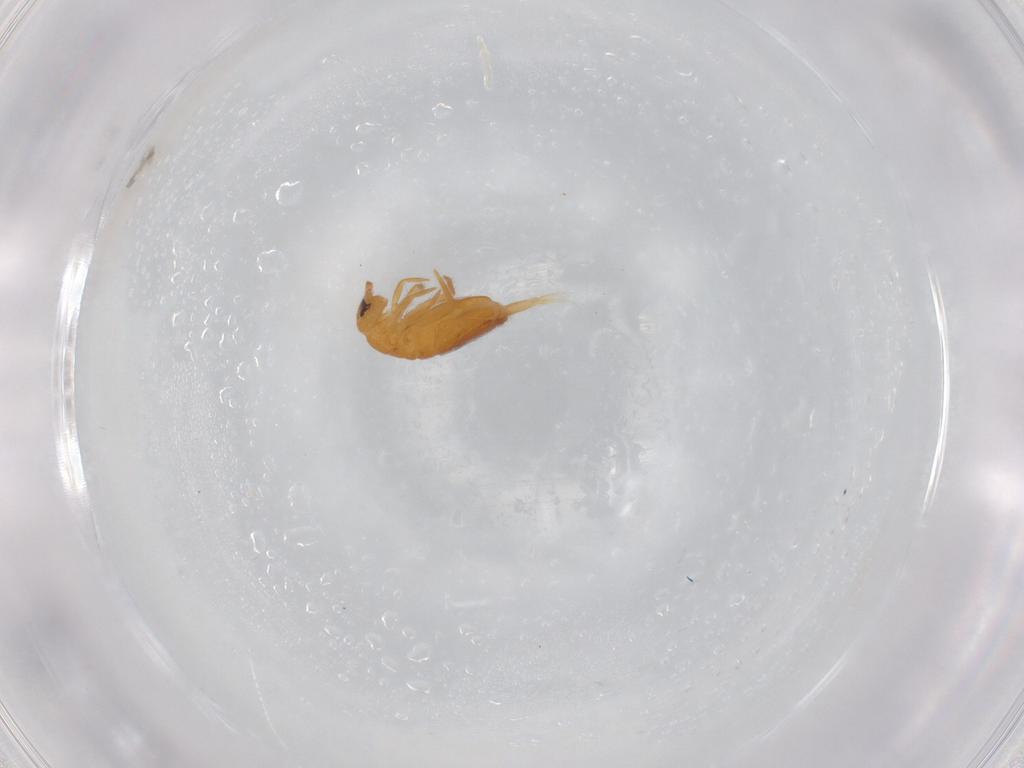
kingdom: Animalia
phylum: Arthropoda
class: Collembola
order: Entomobryomorpha
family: Entomobryidae
